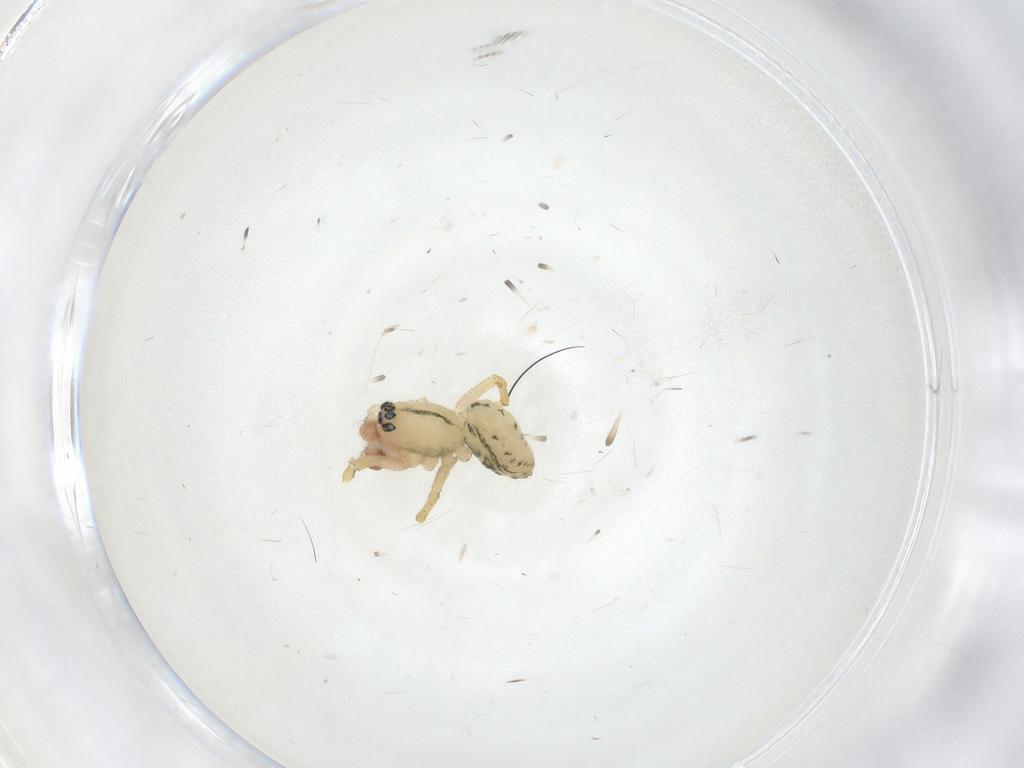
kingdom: Animalia
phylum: Arthropoda
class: Arachnida
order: Araneae
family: Linyphiidae
